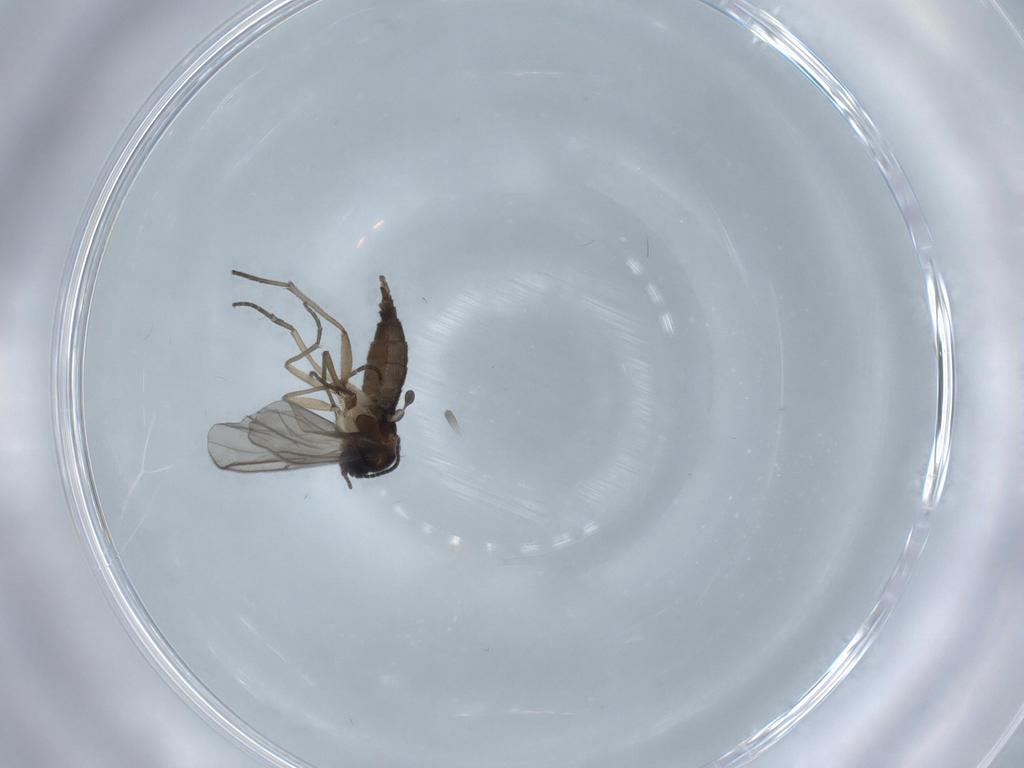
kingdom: Animalia
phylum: Arthropoda
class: Insecta
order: Diptera
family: Sciaridae
